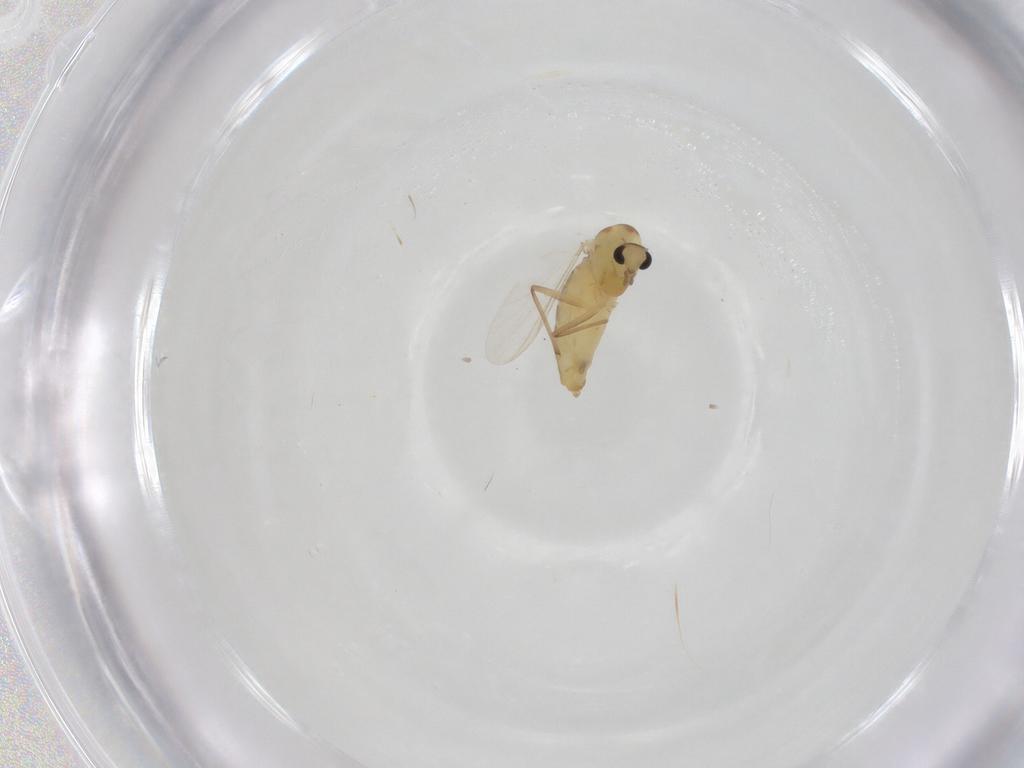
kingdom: Animalia
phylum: Arthropoda
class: Insecta
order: Diptera
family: Chironomidae
